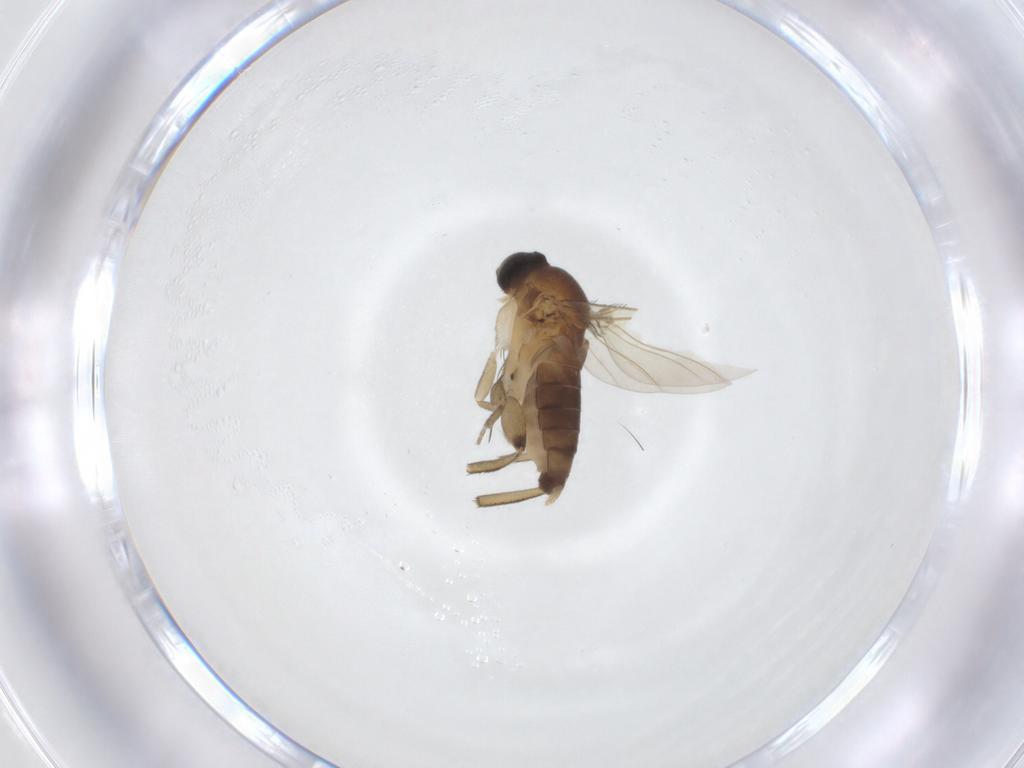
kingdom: Animalia
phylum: Arthropoda
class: Insecta
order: Diptera
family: Phoridae
